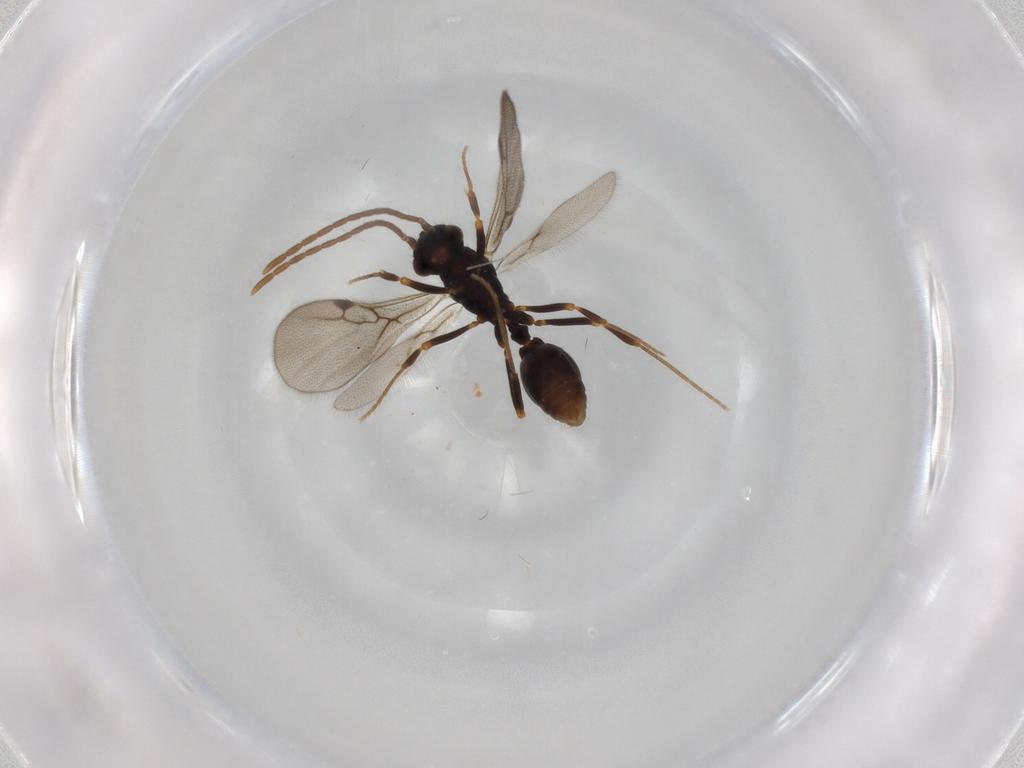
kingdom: Animalia
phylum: Arthropoda
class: Insecta
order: Hymenoptera
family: Formicidae
